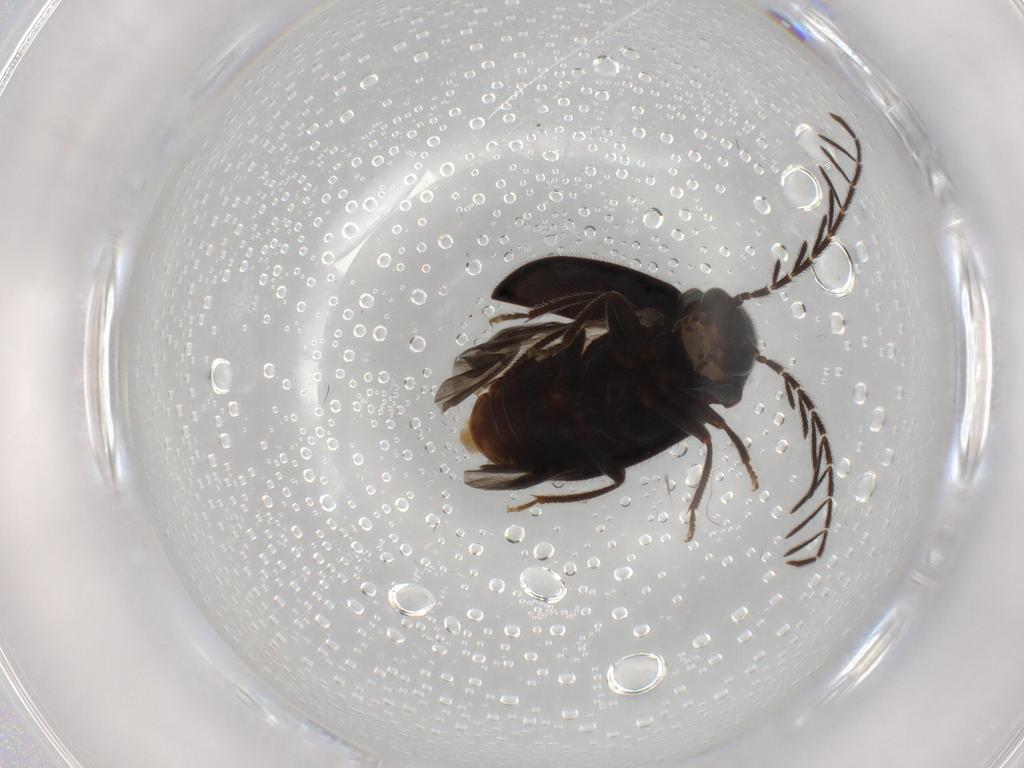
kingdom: Animalia
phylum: Arthropoda
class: Insecta
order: Coleoptera
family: Ptilodactylidae
